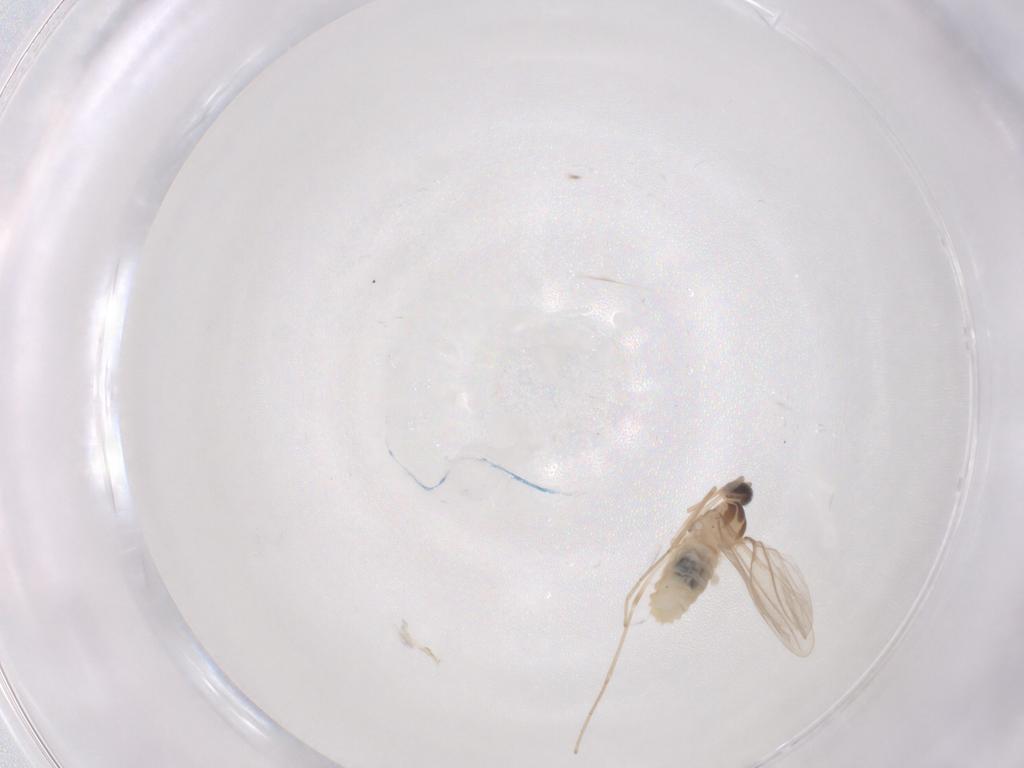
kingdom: Animalia
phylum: Arthropoda
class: Insecta
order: Diptera
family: Cecidomyiidae
